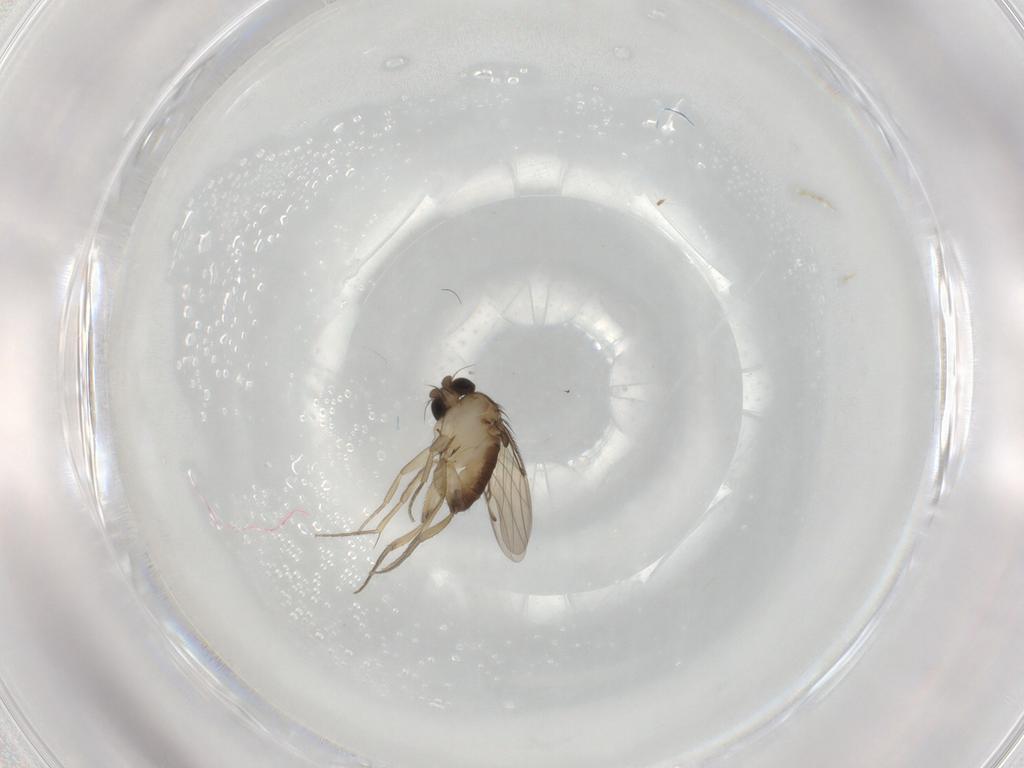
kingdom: Animalia
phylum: Arthropoda
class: Insecta
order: Diptera
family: Phoridae
